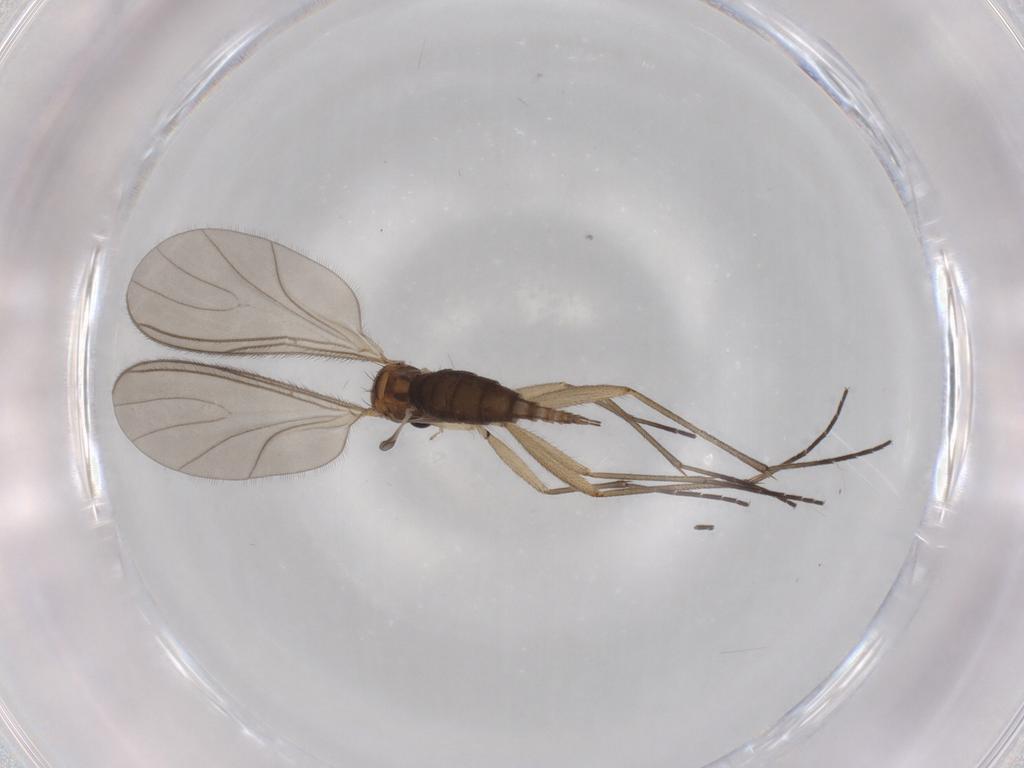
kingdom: Animalia
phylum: Arthropoda
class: Insecta
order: Diptera
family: Sciaridae
